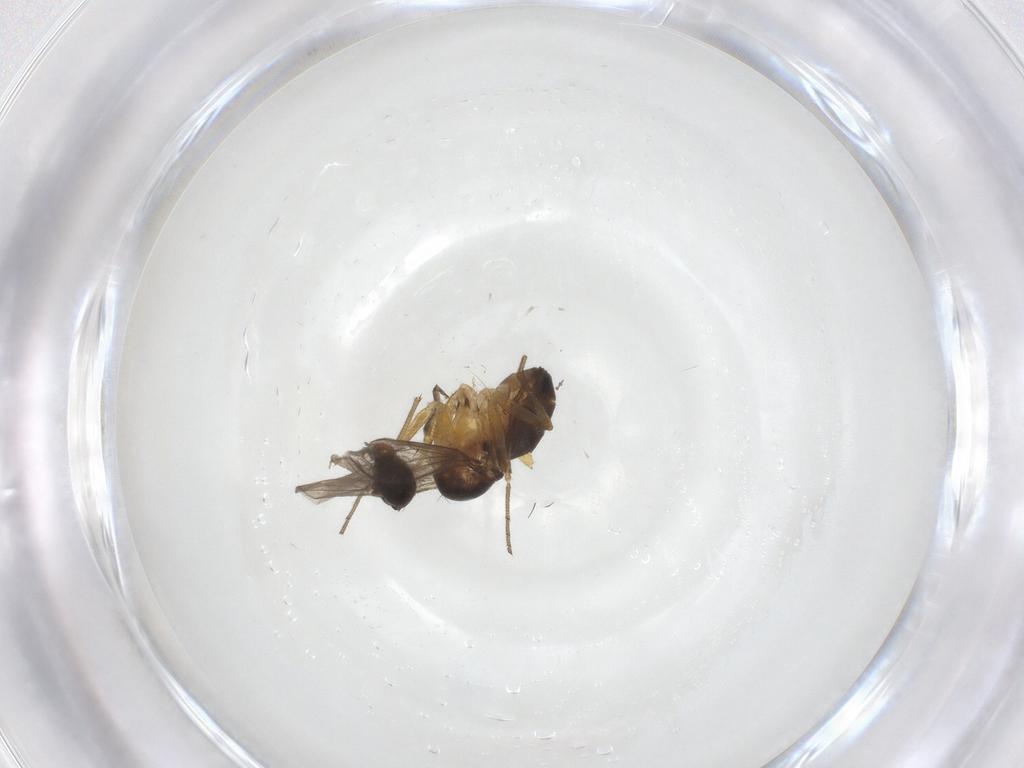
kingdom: Animalia
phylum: Arthropoda
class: Insecta
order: Diptera
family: Dolichopodidae
